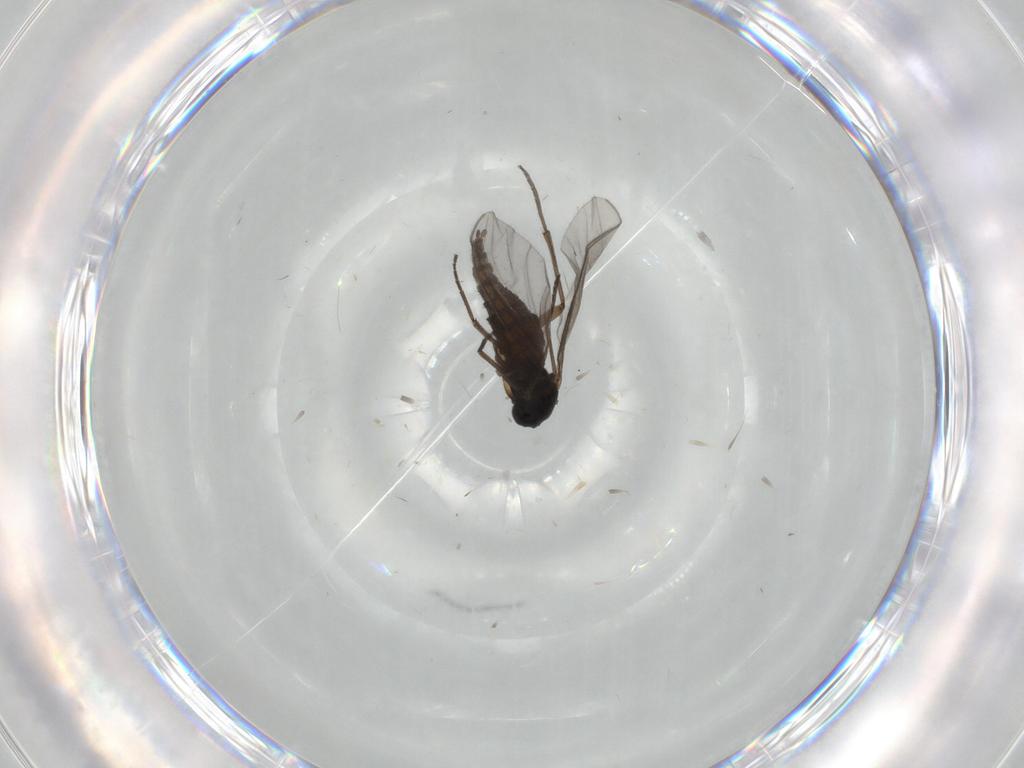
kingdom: Animalia
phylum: Arthropoda
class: Insecta
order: Diptera
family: Sciaridae
